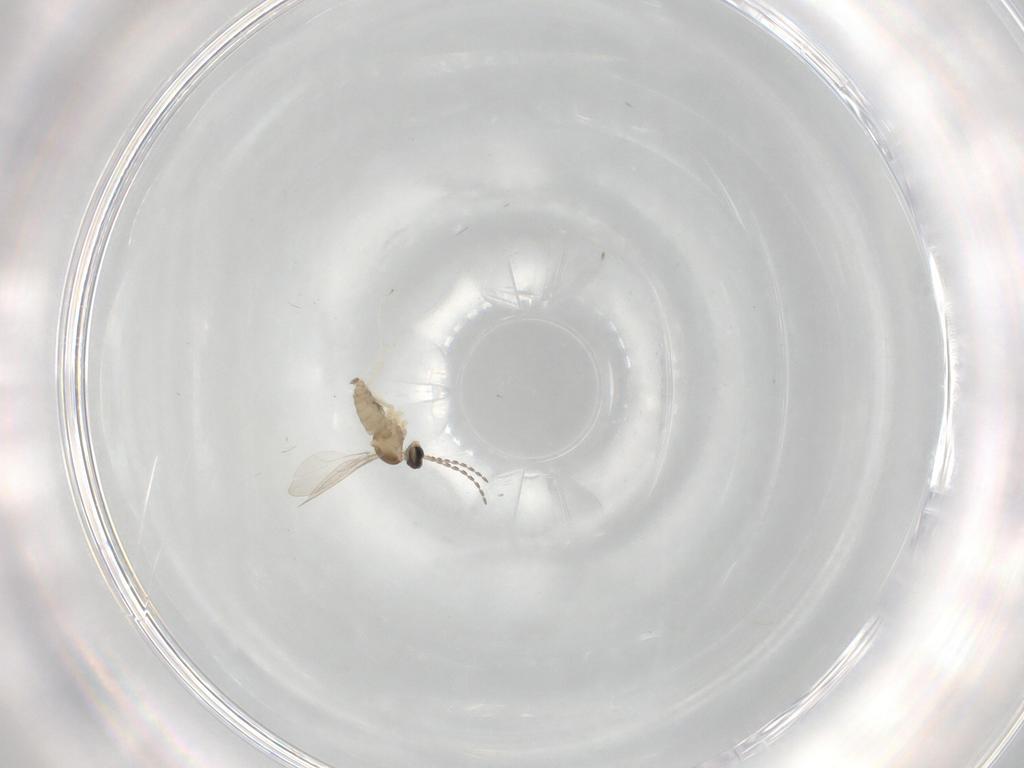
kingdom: Animalia
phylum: Arthropoda
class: Insecta
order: Diptera
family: Cecidomyiidae
